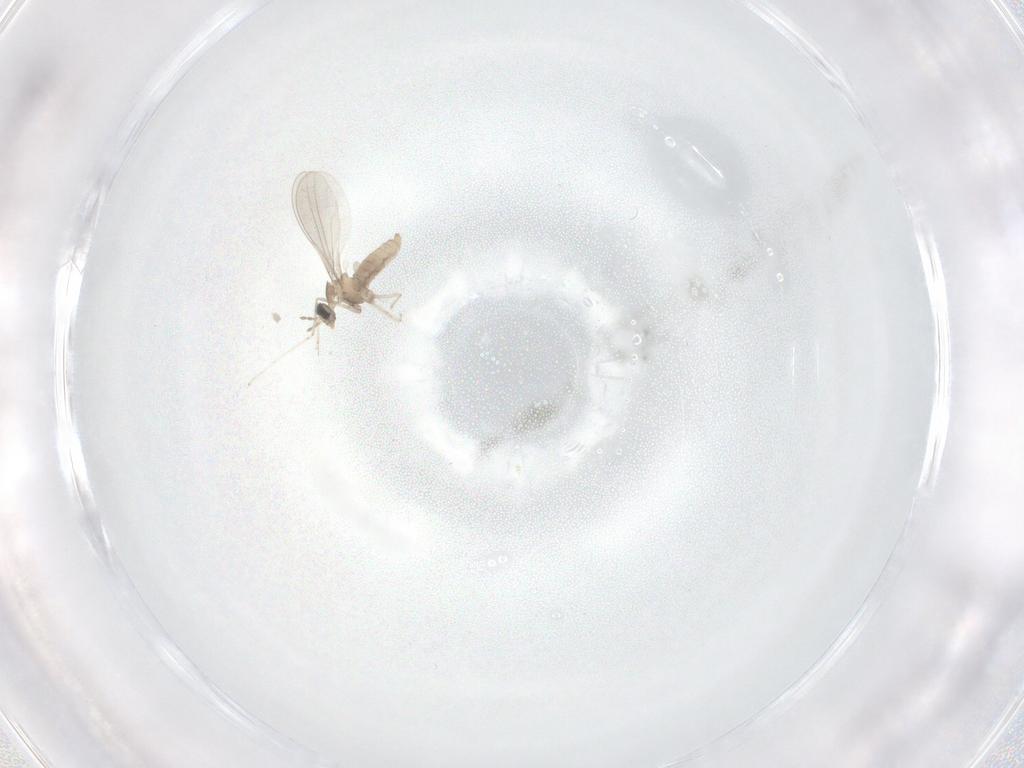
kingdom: Animalia
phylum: Arthropoda
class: Insecta
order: Diptera
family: Cecidomyiidae
